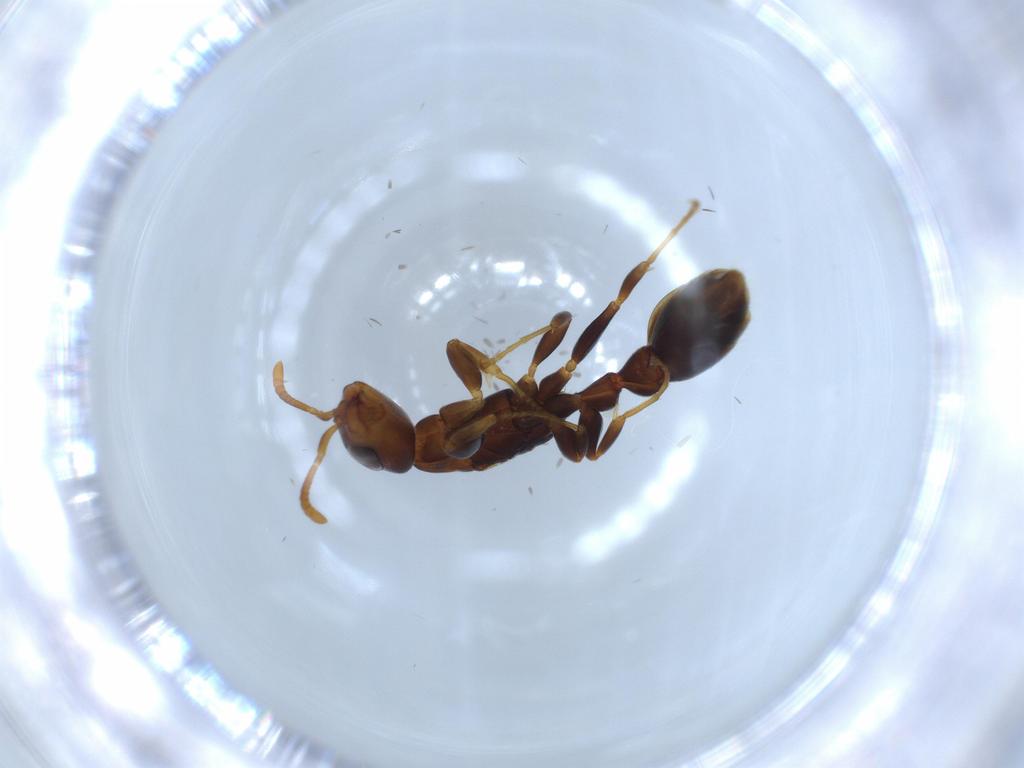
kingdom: Animalia
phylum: Arthropoda
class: Insecta
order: Hymenoptera
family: Formicidae
